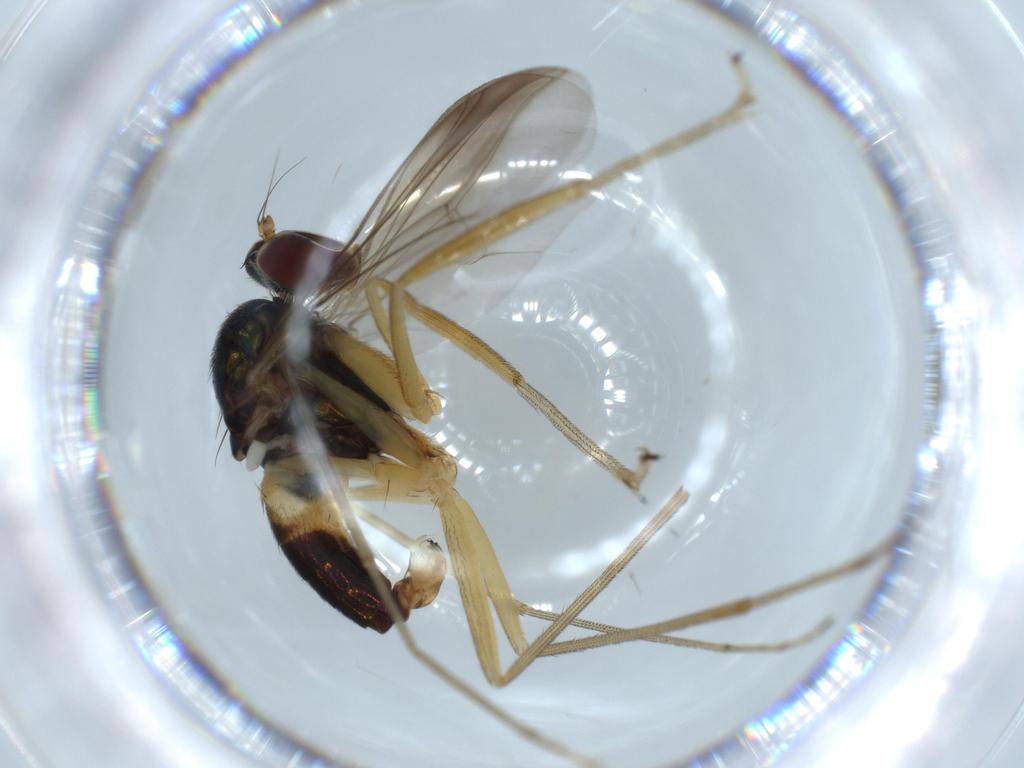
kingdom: Animalia
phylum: Arthropoda
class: Insecta
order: Diptera
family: Dolichopodidae
